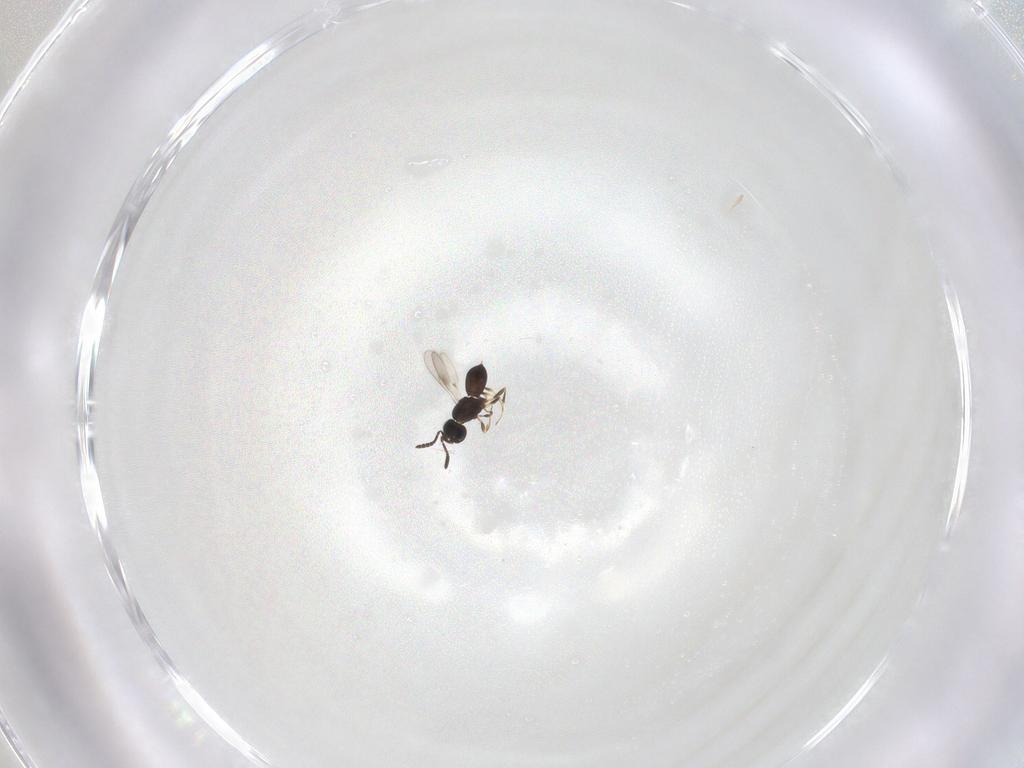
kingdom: Animalia
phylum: Arthropoda
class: Insecta
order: Hymenoptera
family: Scelionidae
